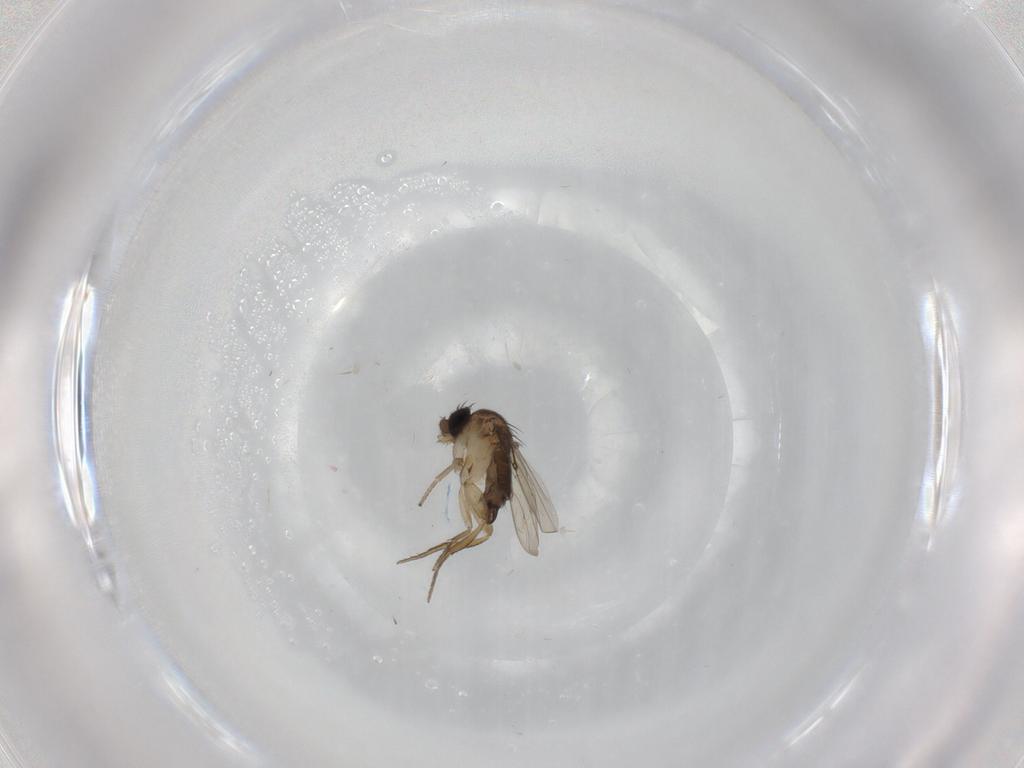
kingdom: Animalia
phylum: Arthropoda
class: Insecta
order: Diptera
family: Phoridae
